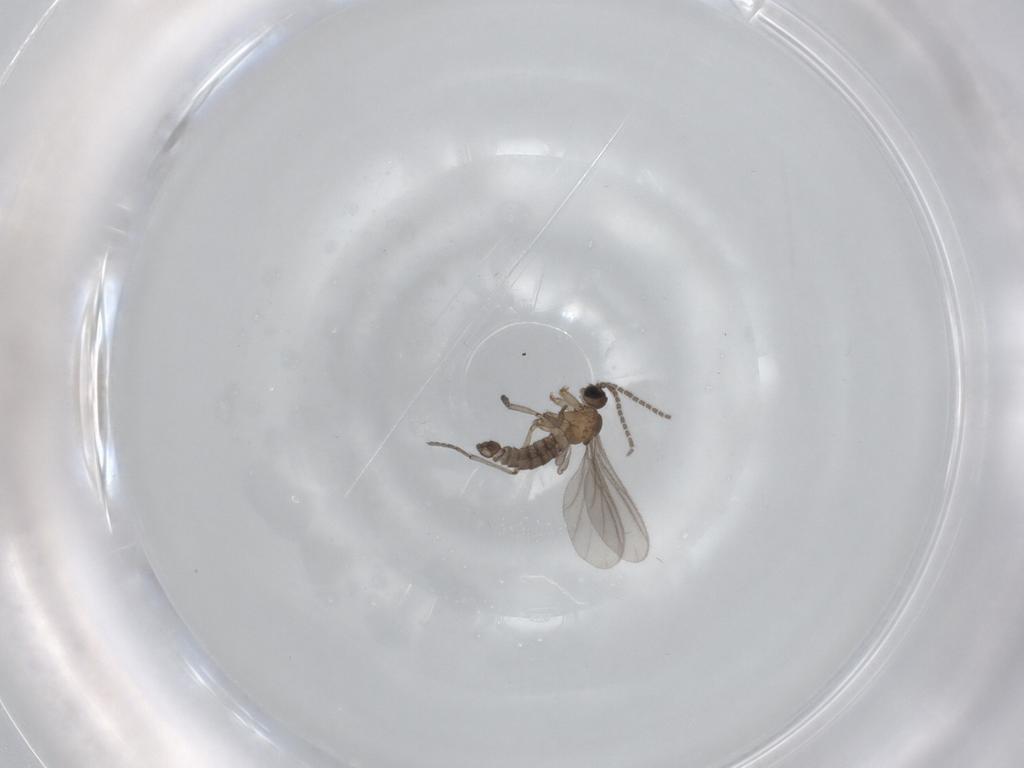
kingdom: Animalia
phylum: Arthropoda
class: Insecta
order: Diptera
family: Sciaridae
